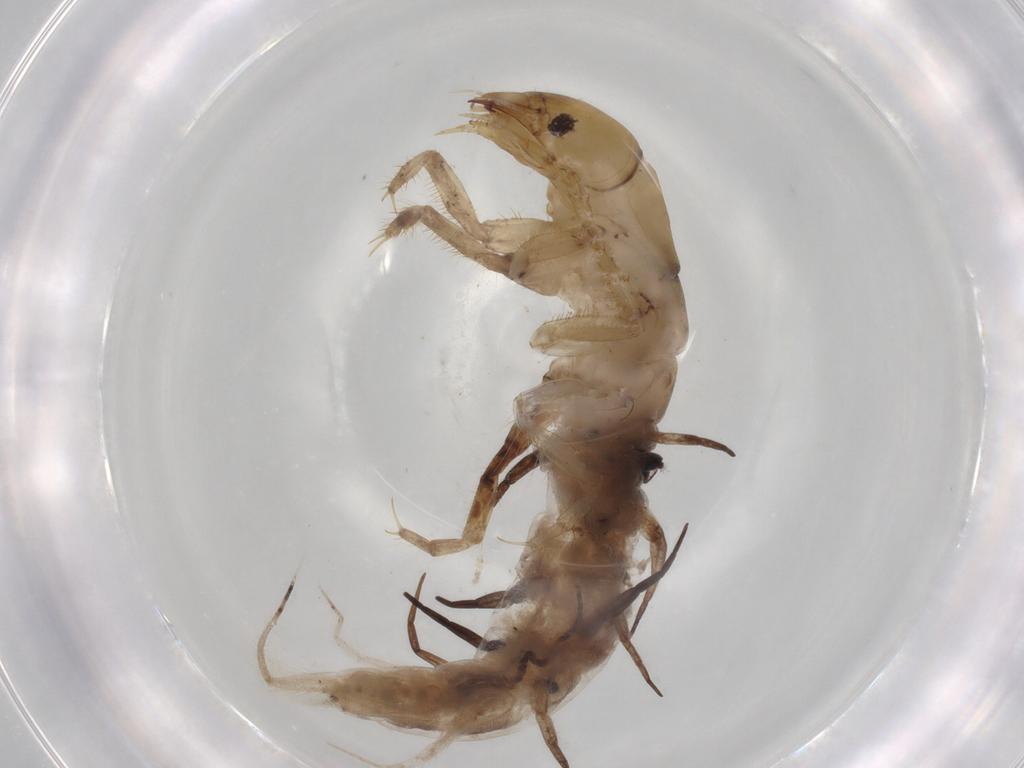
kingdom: Animalia
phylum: Arthropoda
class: Insecta
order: Megaloptera
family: Sialidae
